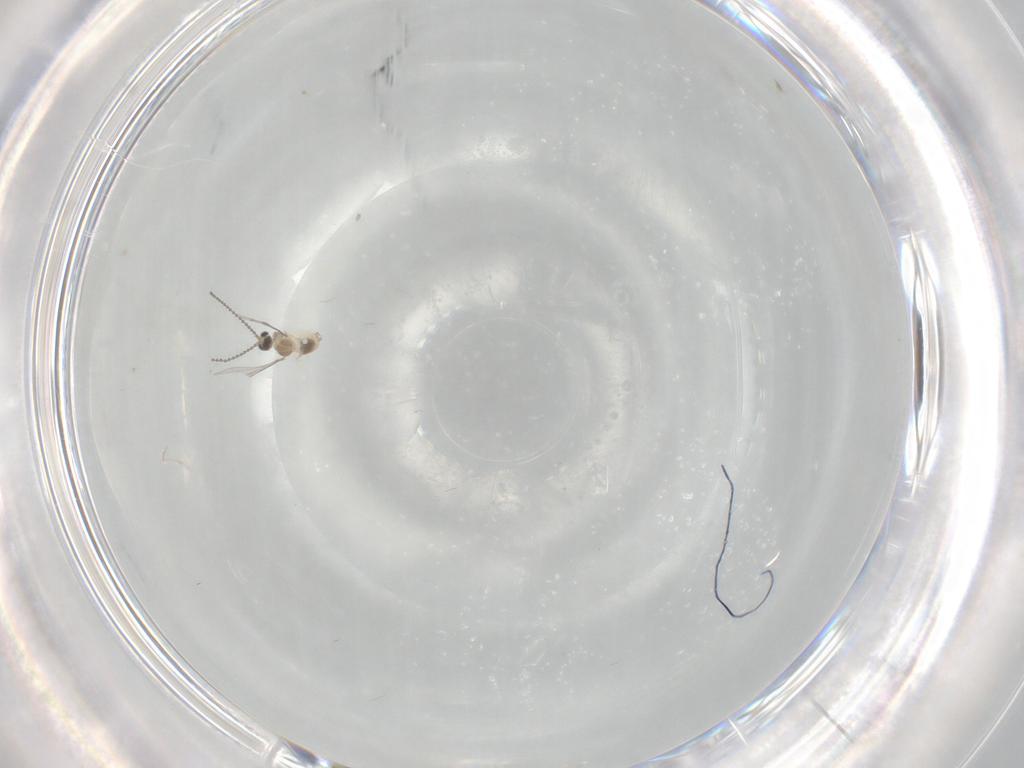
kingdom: Animalia
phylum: Arthropoda
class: Insecta
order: Diptera
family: Cecidomyiidae
